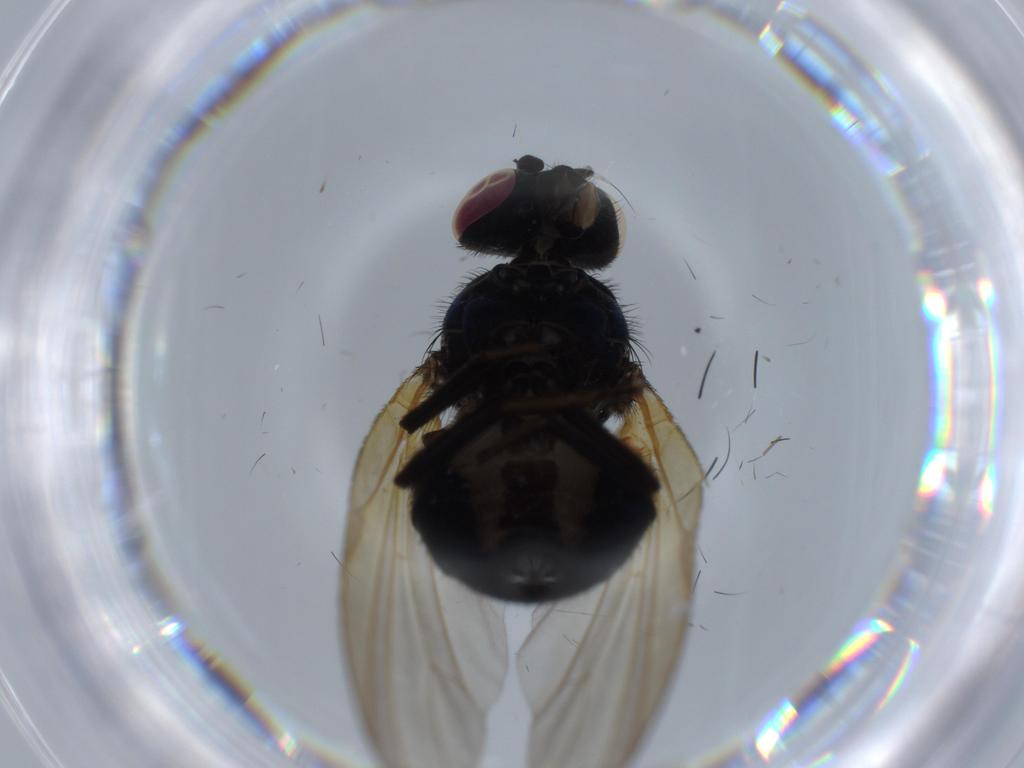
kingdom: Animalia
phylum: Arthropoda
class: Insecta
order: Diptera
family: Lonchaeidae
